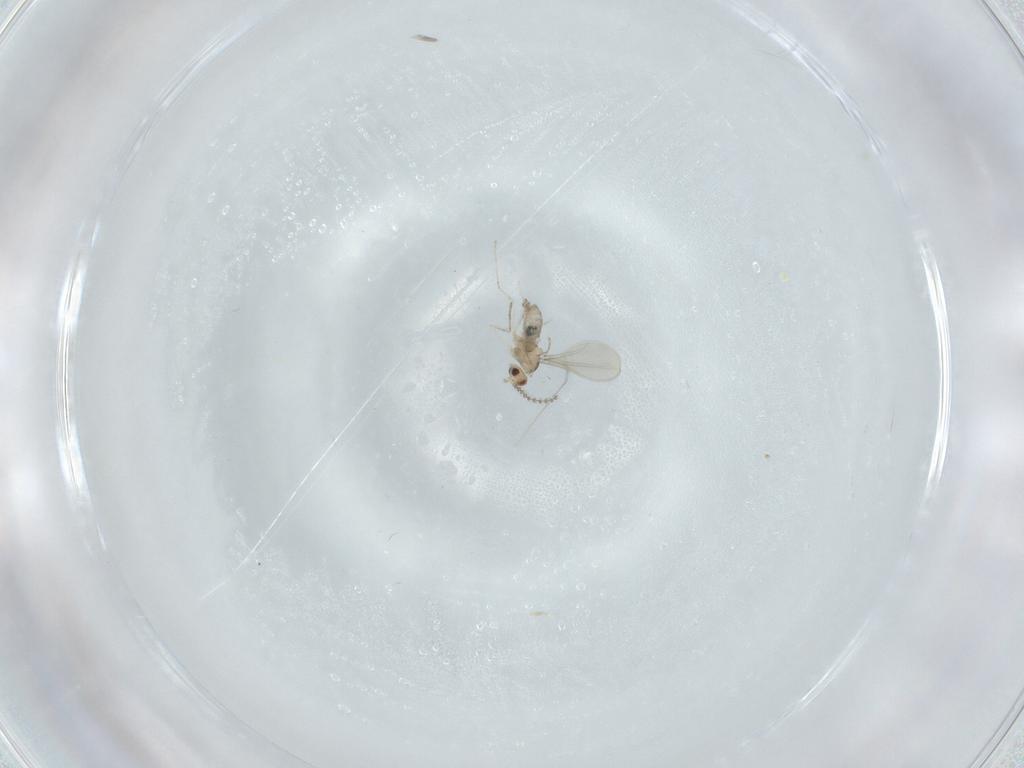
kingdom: Animalia
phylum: Arthropoda
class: Insecta
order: Diptera
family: Cecidomyiidae
